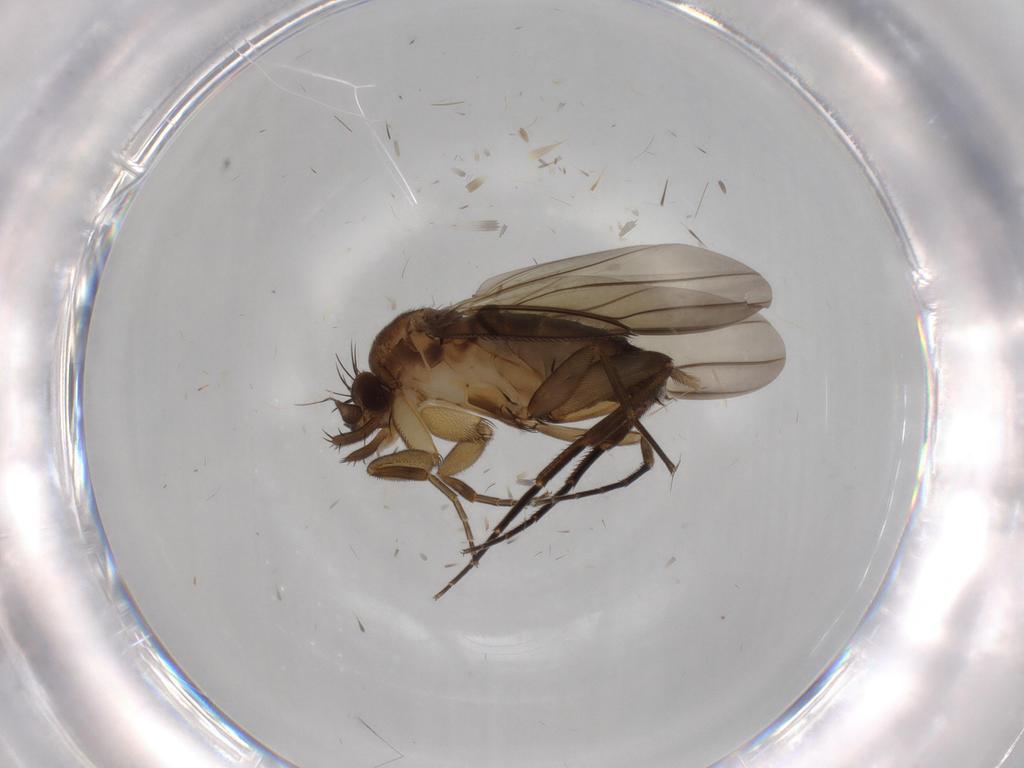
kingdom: Animalia
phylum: Arthropoda
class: Insecta
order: Diptera
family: Phoridae
